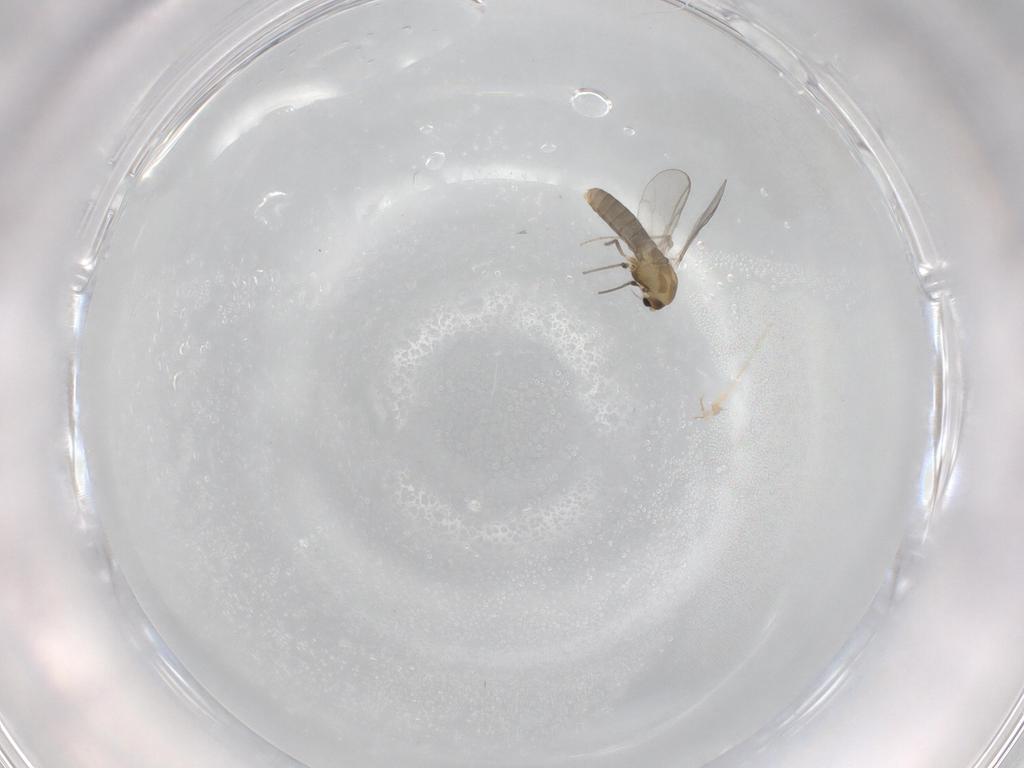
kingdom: Animalia
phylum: Arthropoda
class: Insecta
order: Diptera
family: Chironomidae
